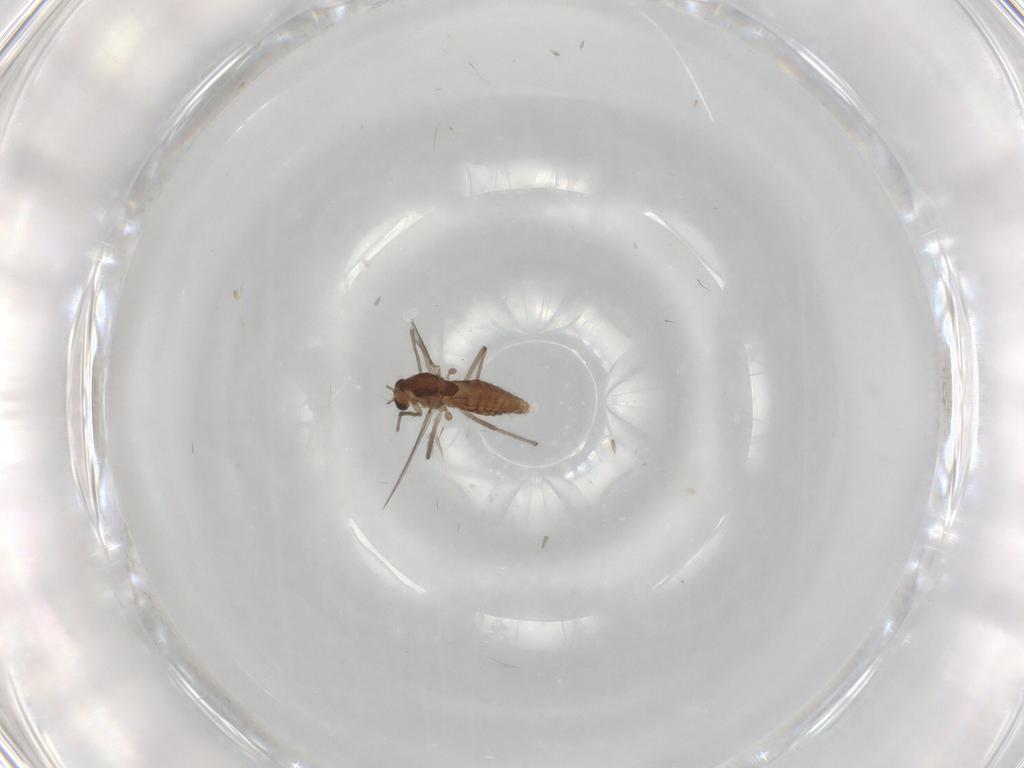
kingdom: Animalia
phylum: Arthropoda
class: Insecta
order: Diptera
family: Chironomidae
